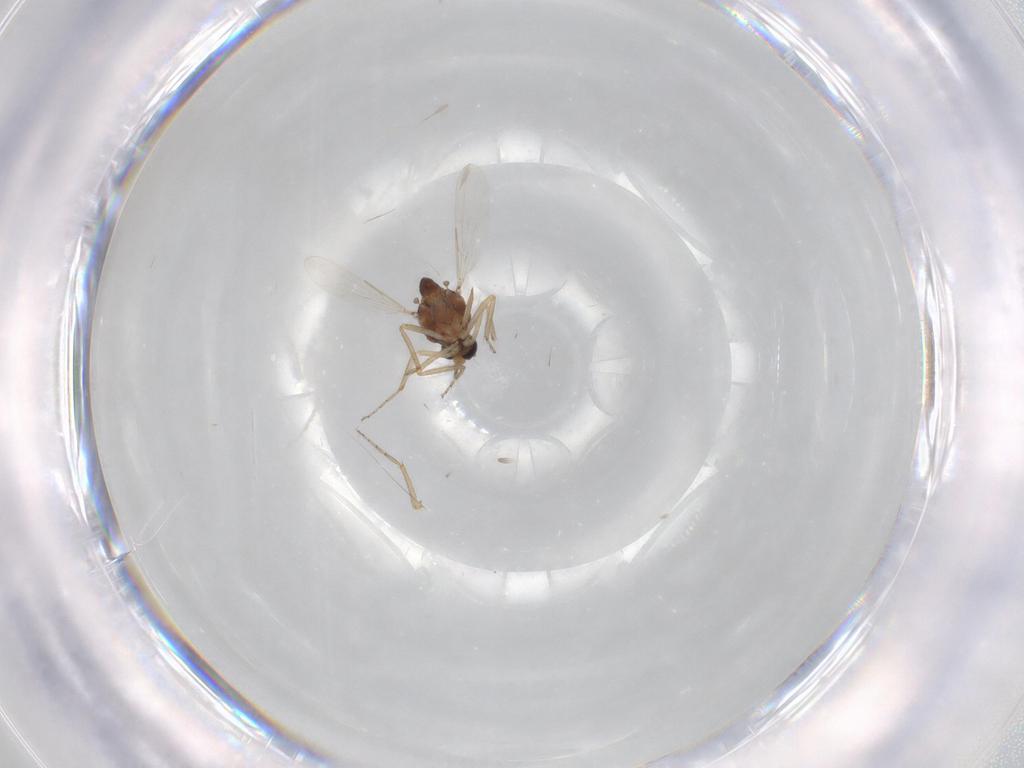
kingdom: Animalia
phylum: Arthropoda
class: Insecta
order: Diptera
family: Ceratopogonidae
